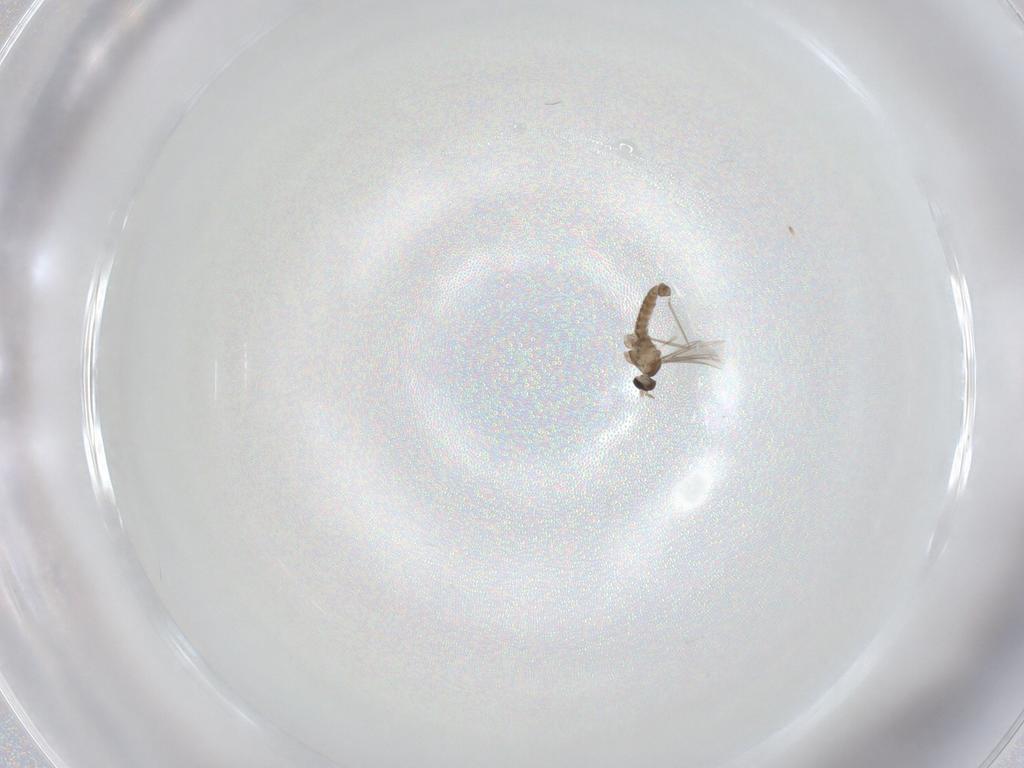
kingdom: Animalia
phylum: Arthropoda
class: Insecta
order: Diptera
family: Cecidomyiidae
